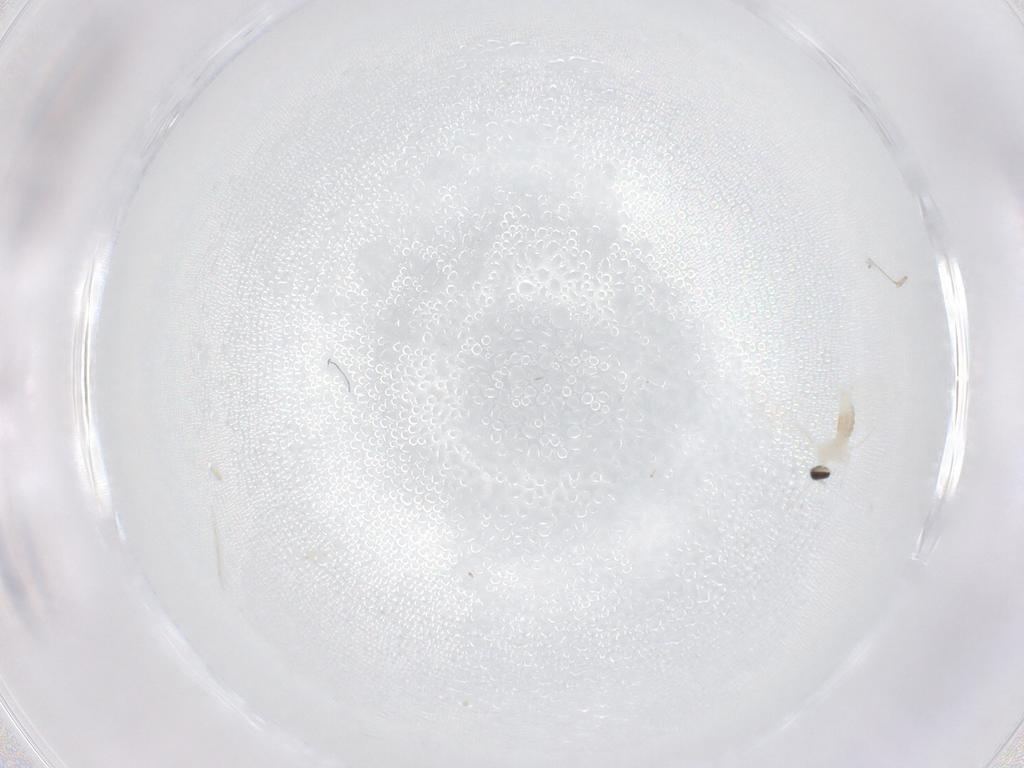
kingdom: Animalia
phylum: Arthropoda
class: Insecta
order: Diptera
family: Cecidomyiidae
